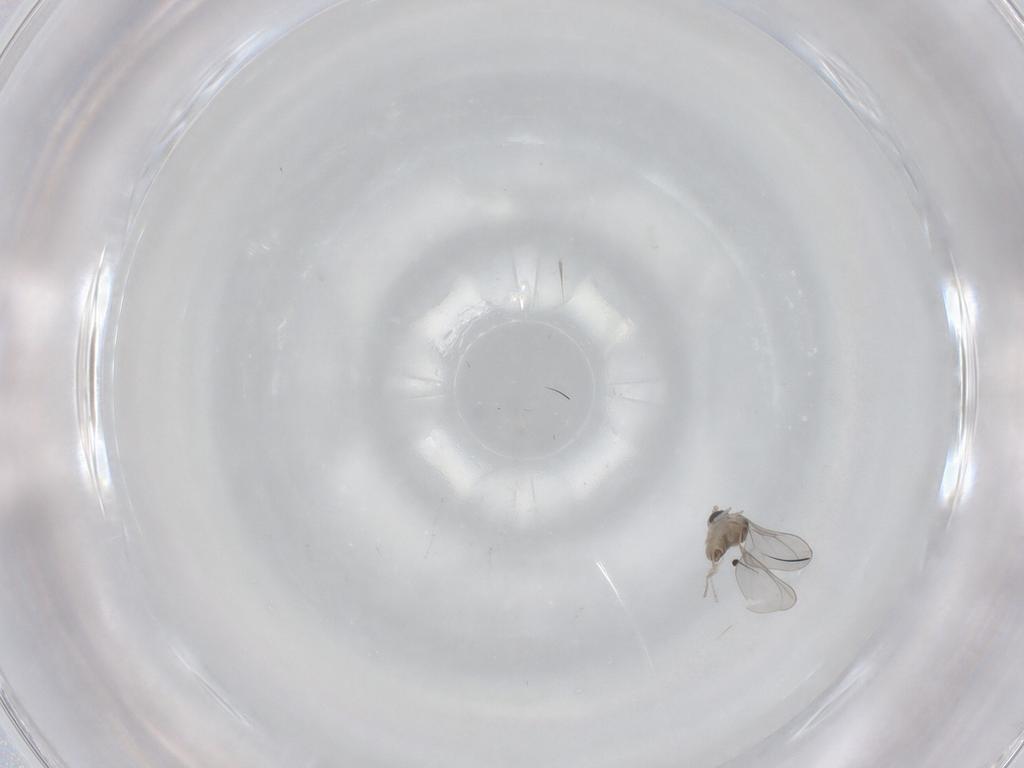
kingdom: Animalia
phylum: Arthropoda
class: Insecta
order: Diptera
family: Cecidomyiidae
